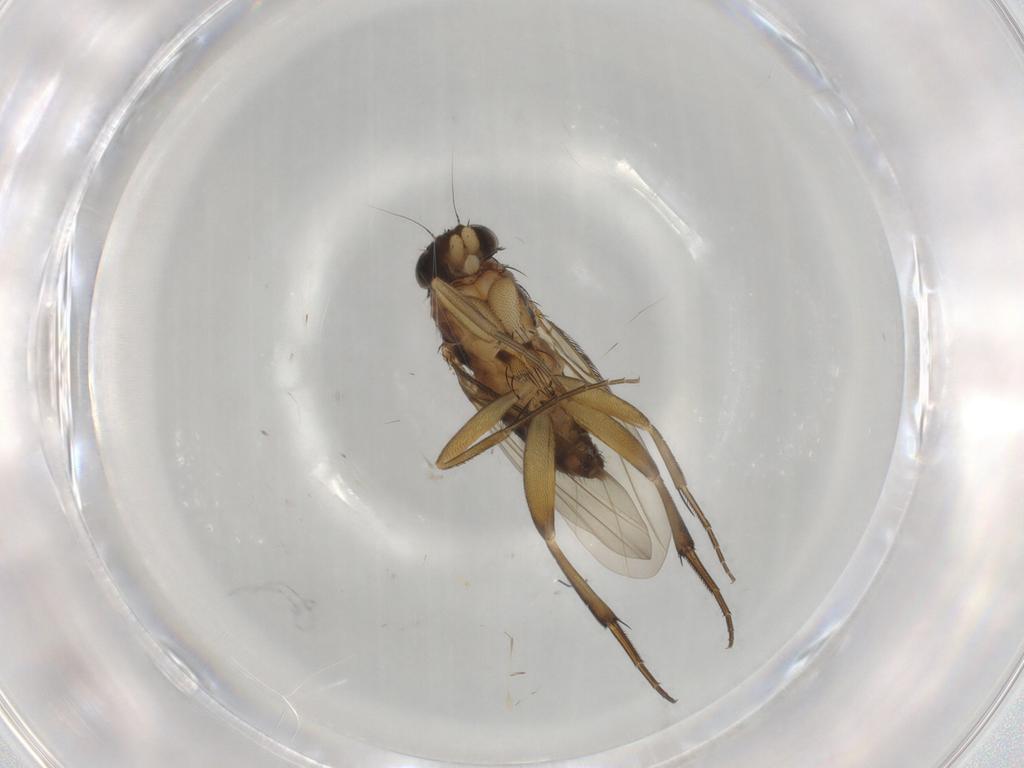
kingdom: Animalia
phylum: Arthropoda
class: Insecta
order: Diptera
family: Phoridae
